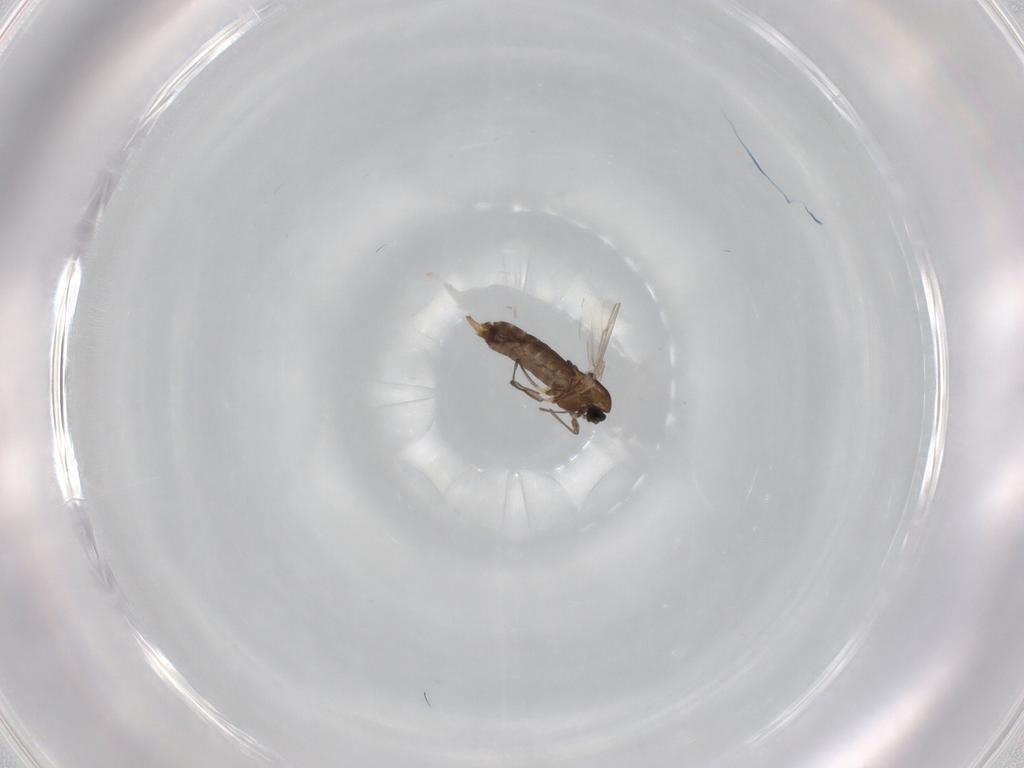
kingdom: Animalia
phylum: Arthropoda
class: Insecta
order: Diptera
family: Chironomidae
